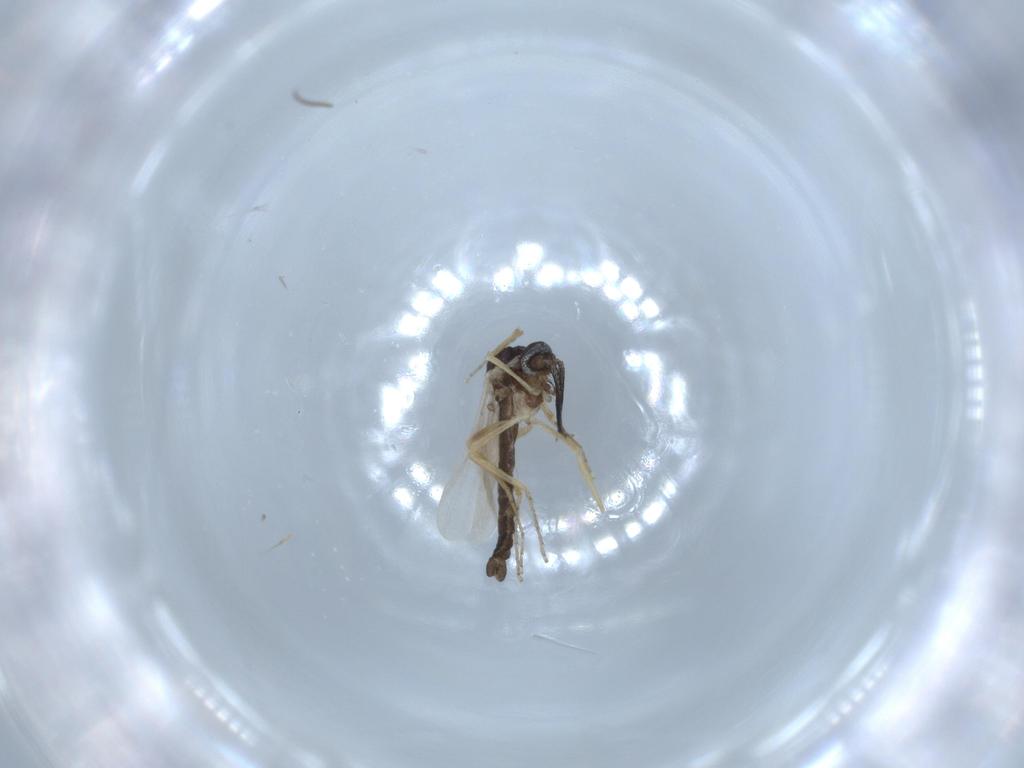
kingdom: Animalia
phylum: Arthropoda
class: Insecta
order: Diptera
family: Ceratopogonidae
